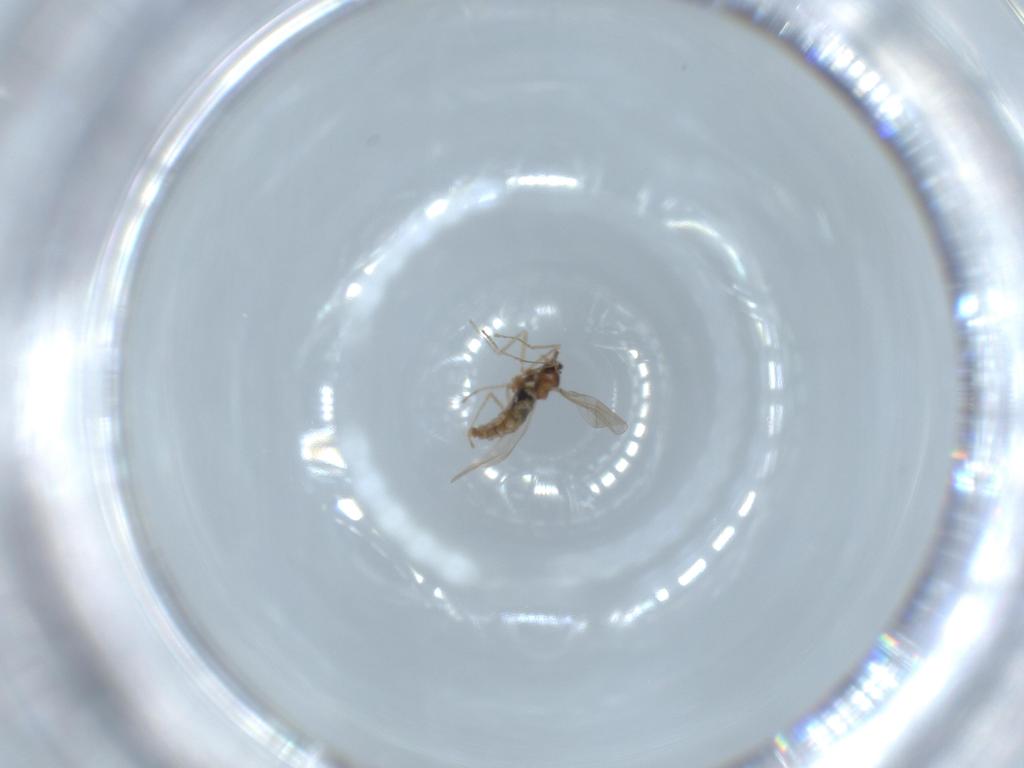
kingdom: Animalia
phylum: Arthropoda
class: Insecta
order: Diptera
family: Cecidomyiidae
